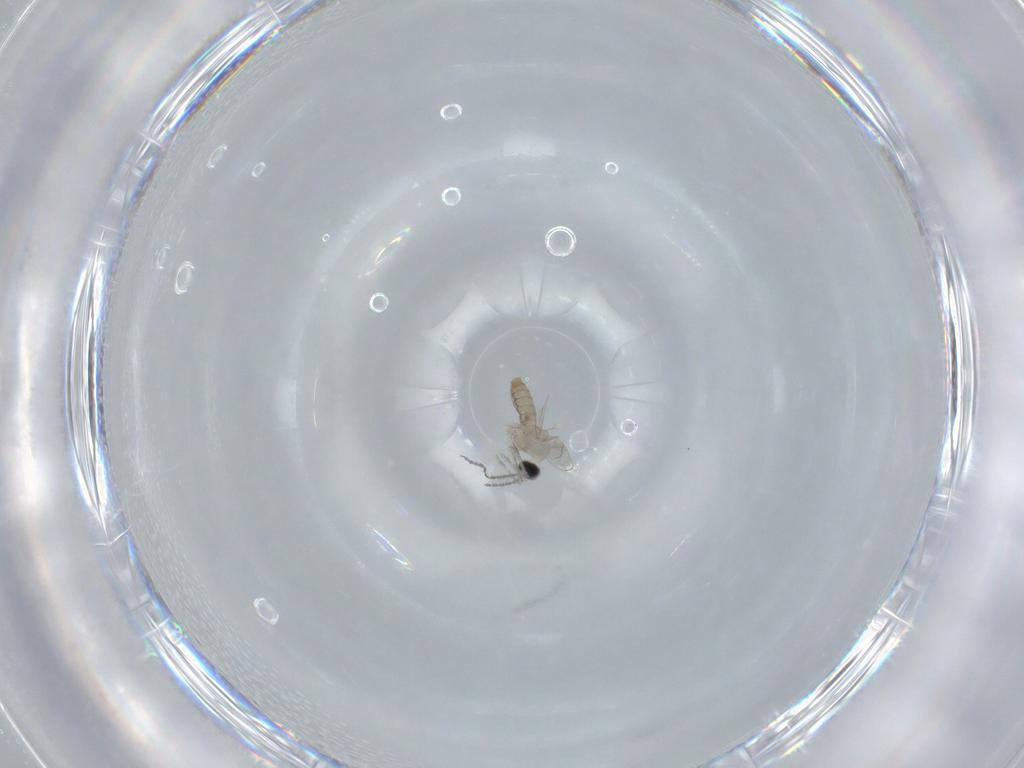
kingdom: Animalia
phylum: Arthropoda
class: Insecta
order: Diptera
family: Cecidomyiidae
